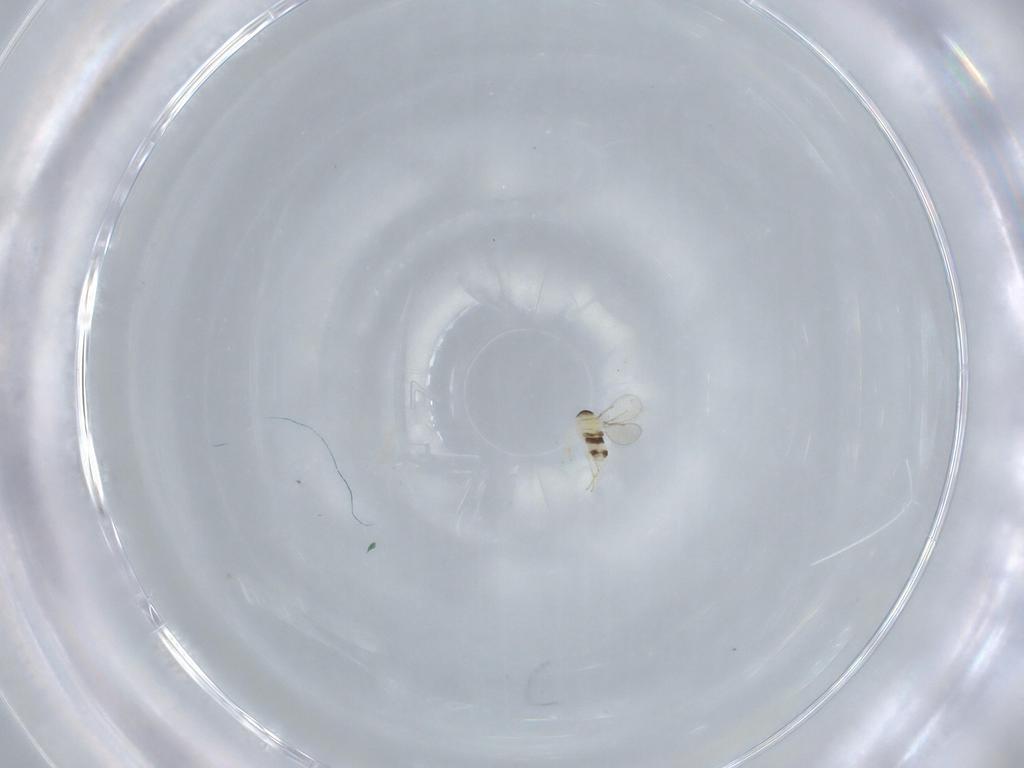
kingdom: Animalia
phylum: Arthropoda
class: Insecta
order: Hymenoptera
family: Aphelinidae
